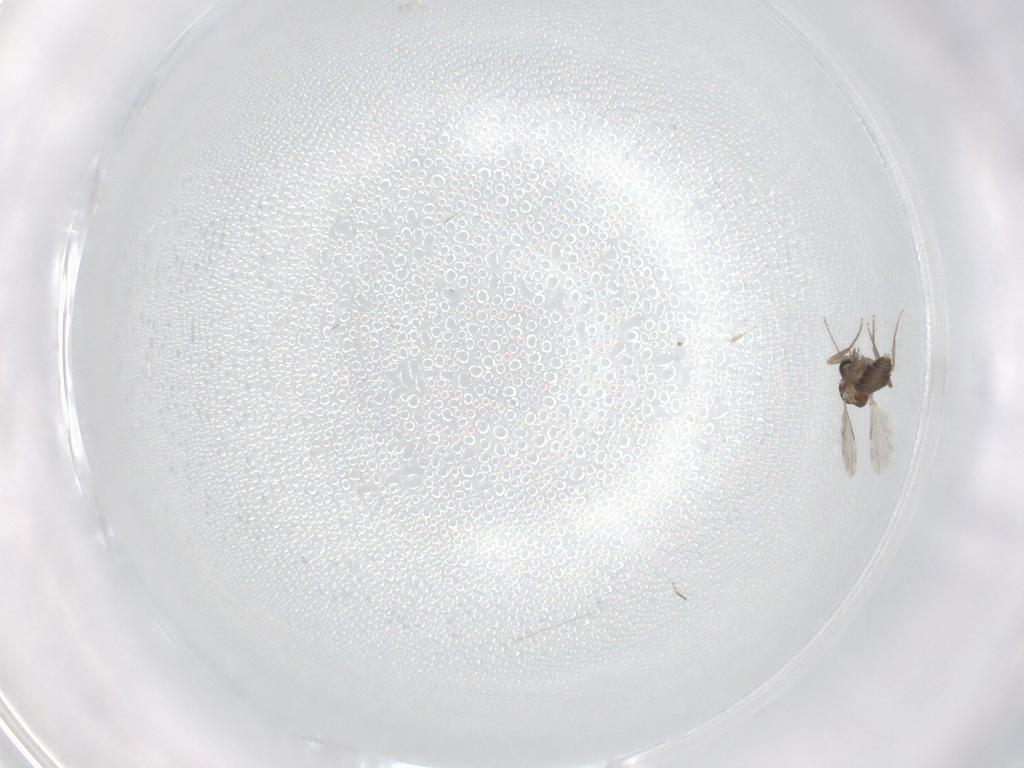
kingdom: Animalia
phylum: Arthropoda
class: Insecta
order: Diptera
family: Ceratopogonidae
